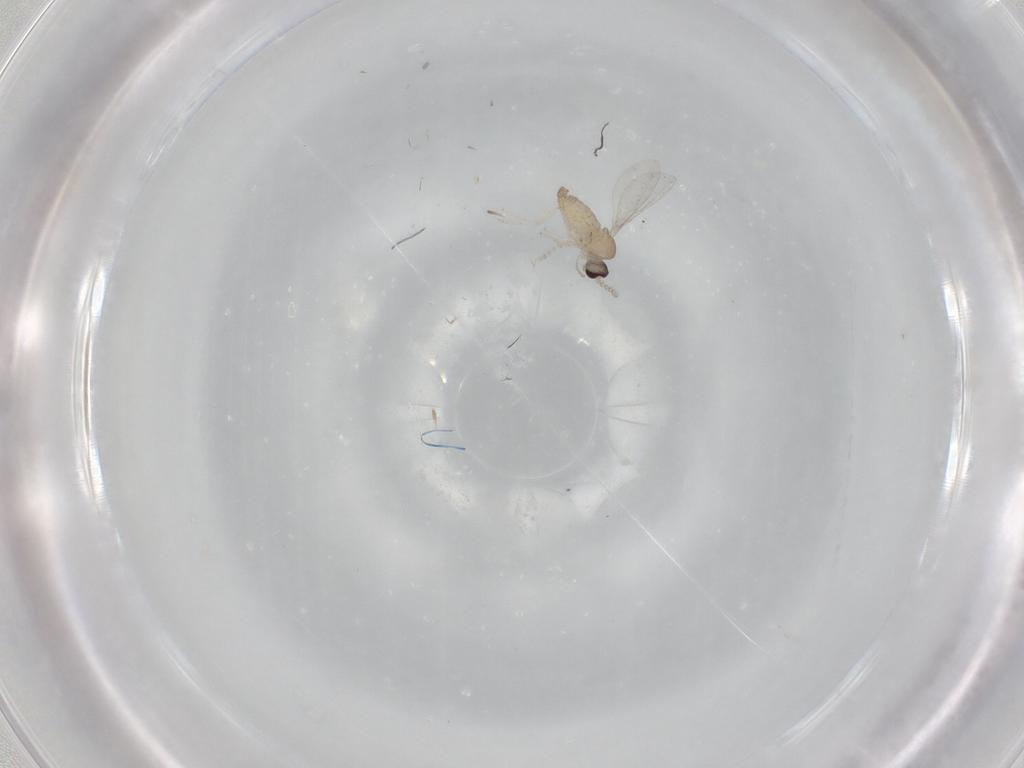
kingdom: Animalia
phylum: Arthropoda
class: Insecta
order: Diptera
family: Cecidomyiidae
